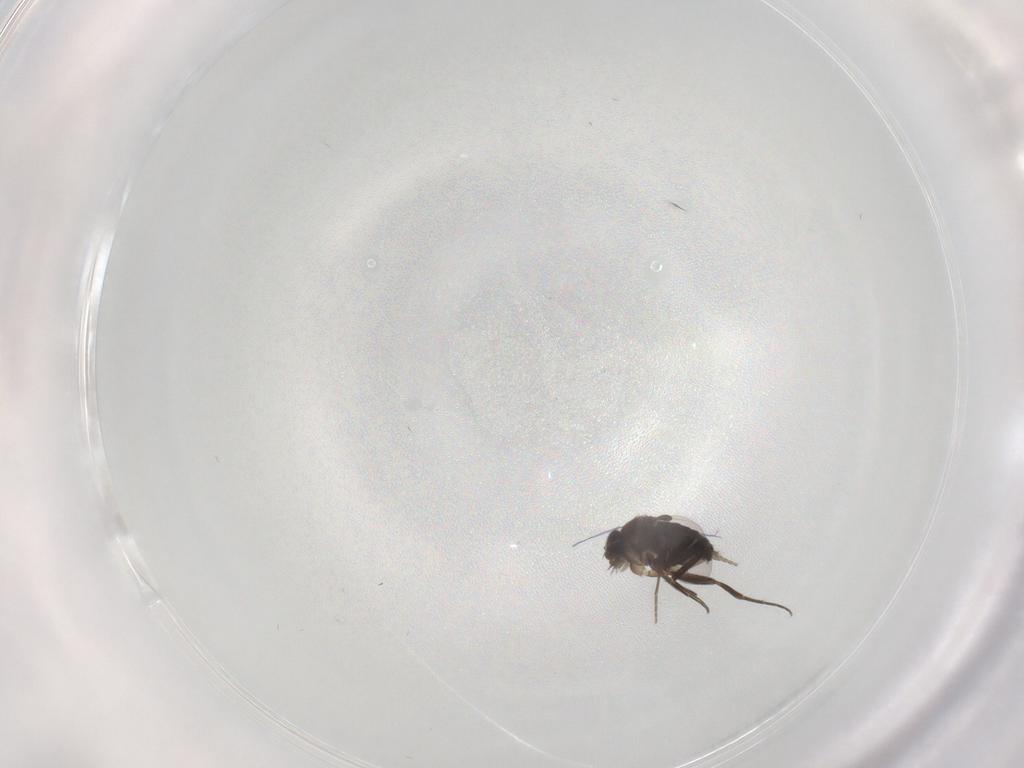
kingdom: Animalia
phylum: Arthropoda
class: Insecta
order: Diptera
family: Phoridae
